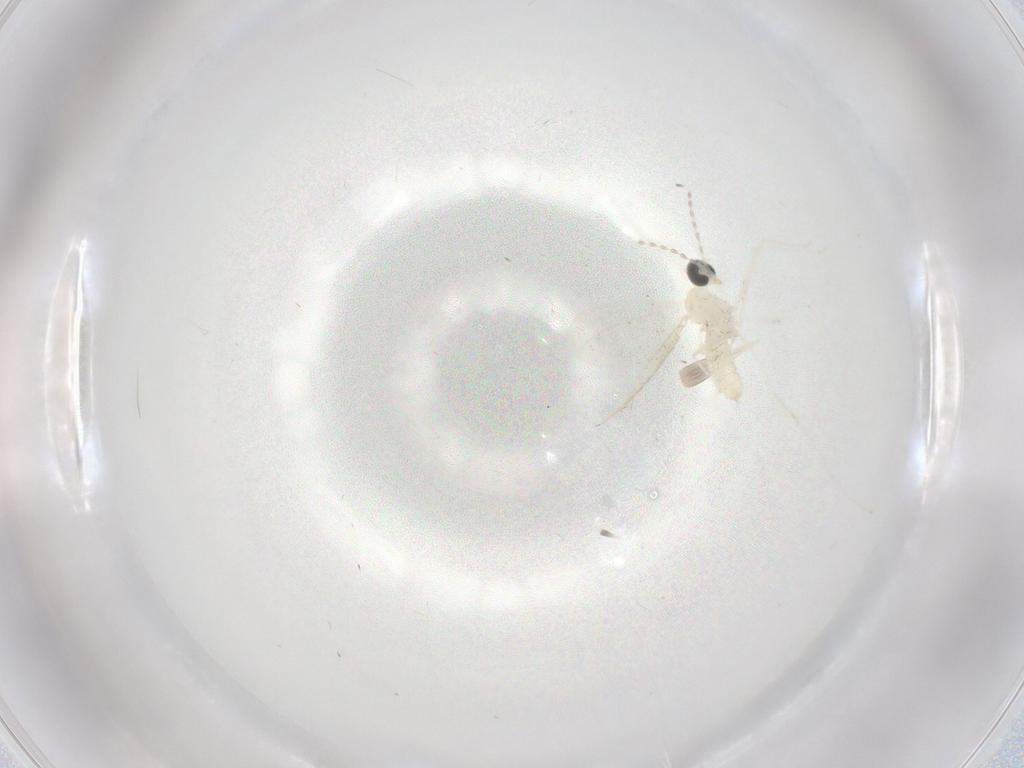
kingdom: Animalia
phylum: Arthropoda
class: Insecta
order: Diptera
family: Cecidomyiidae
